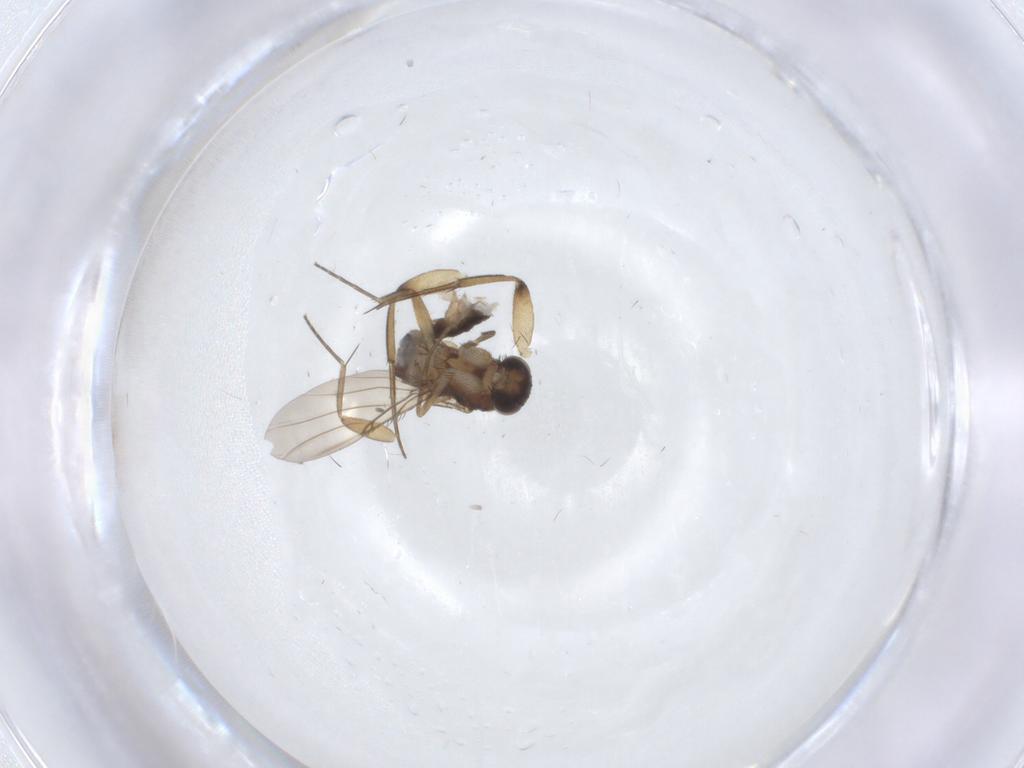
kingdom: Animalia
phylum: Arthropoda
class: Insecta
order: Diptera
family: Phoridae
